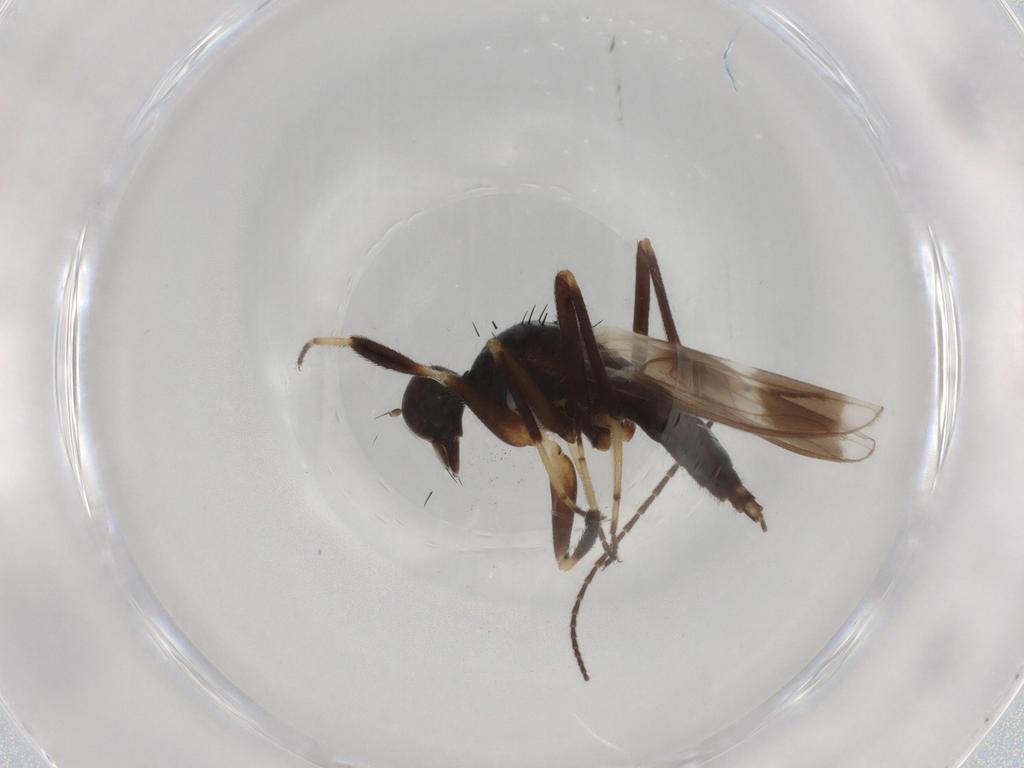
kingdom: Animalia
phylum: Arthropoda
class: Insecta
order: Diptera
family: Hybotidae
